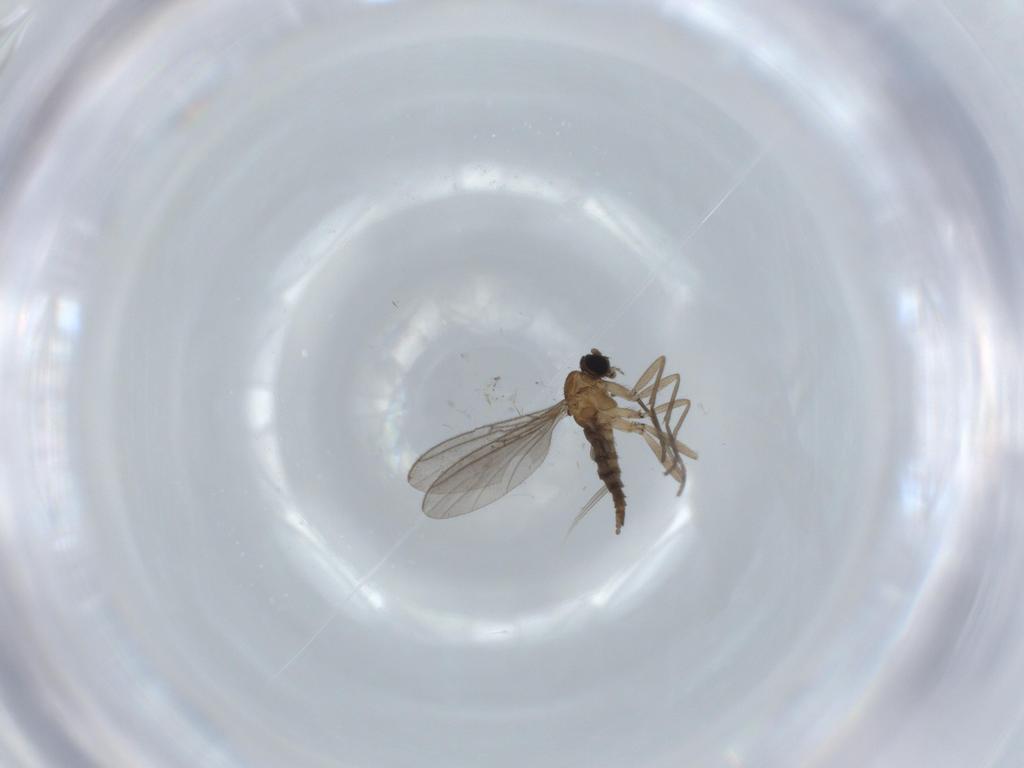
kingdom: Animalia
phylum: Arthropoda
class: Insecta
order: Diptera
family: Sciaridae
